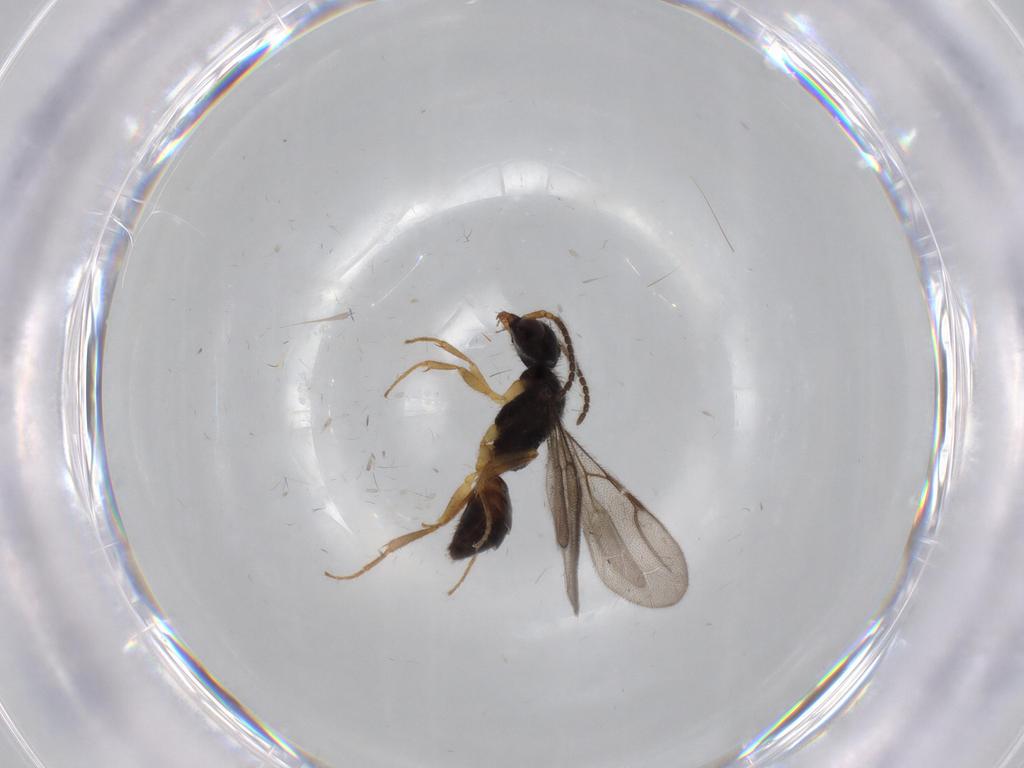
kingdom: Animalia
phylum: Arthropoda
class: Insecta
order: Hymenoptera
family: Bethylidae
